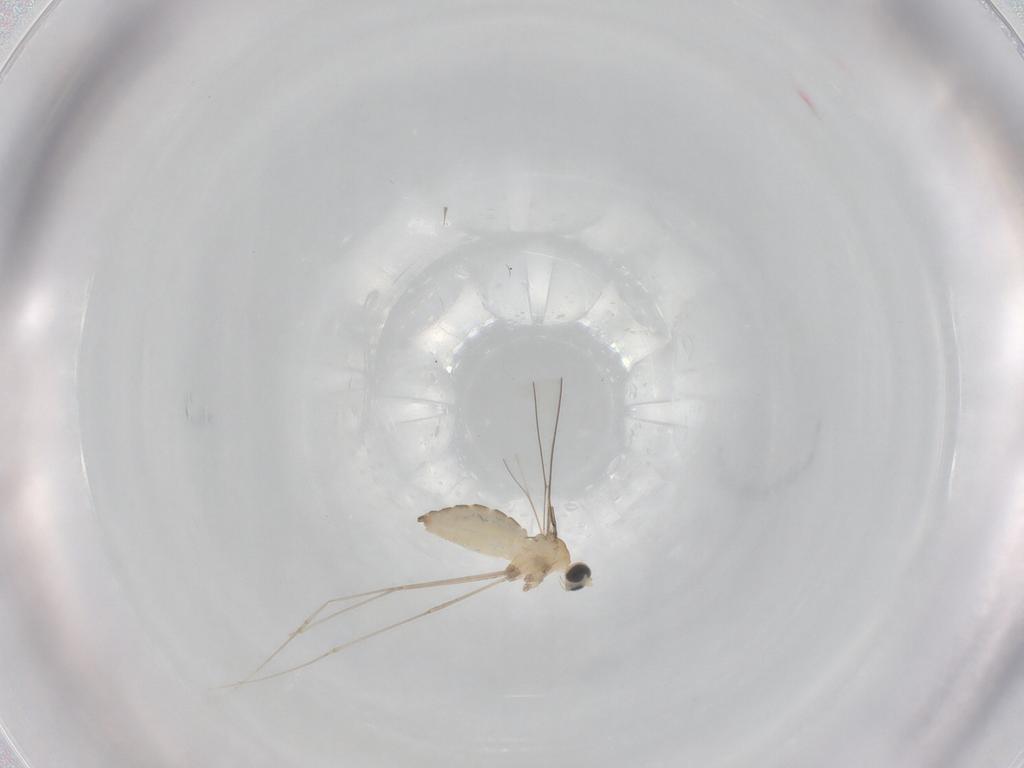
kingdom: Animalia
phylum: Arthropoda
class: Insecta
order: Diptera
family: Cecidomyiidae
